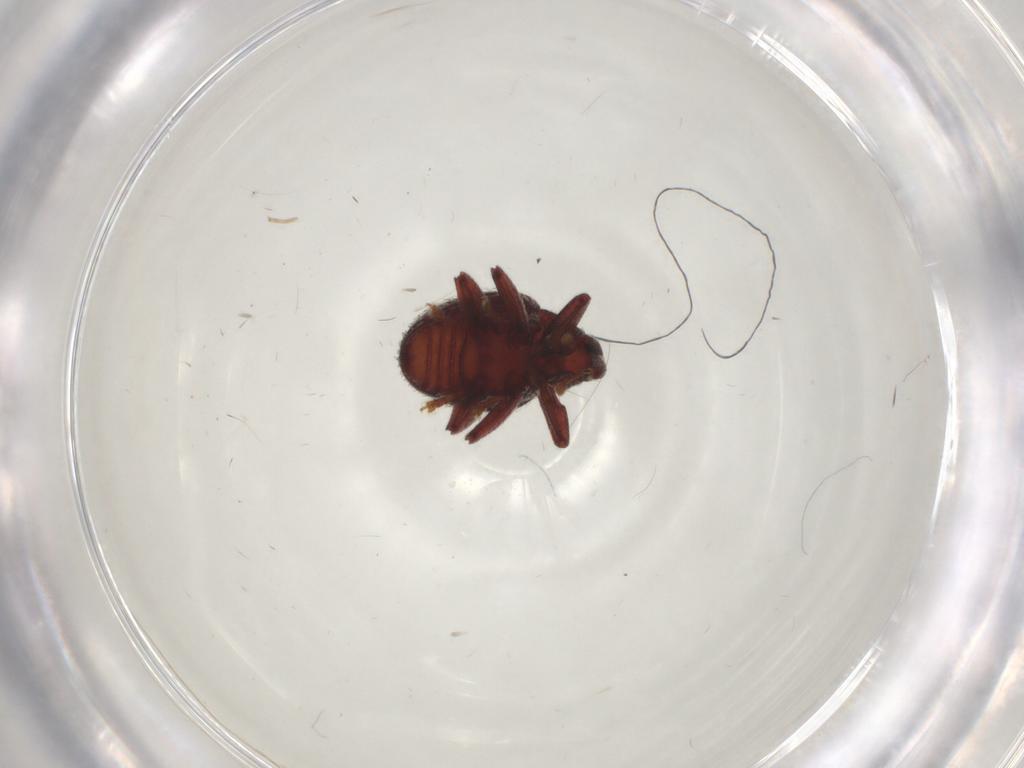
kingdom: Animalia
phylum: Arthropoda
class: Insecta
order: Coleoptera
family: Curculionidae
